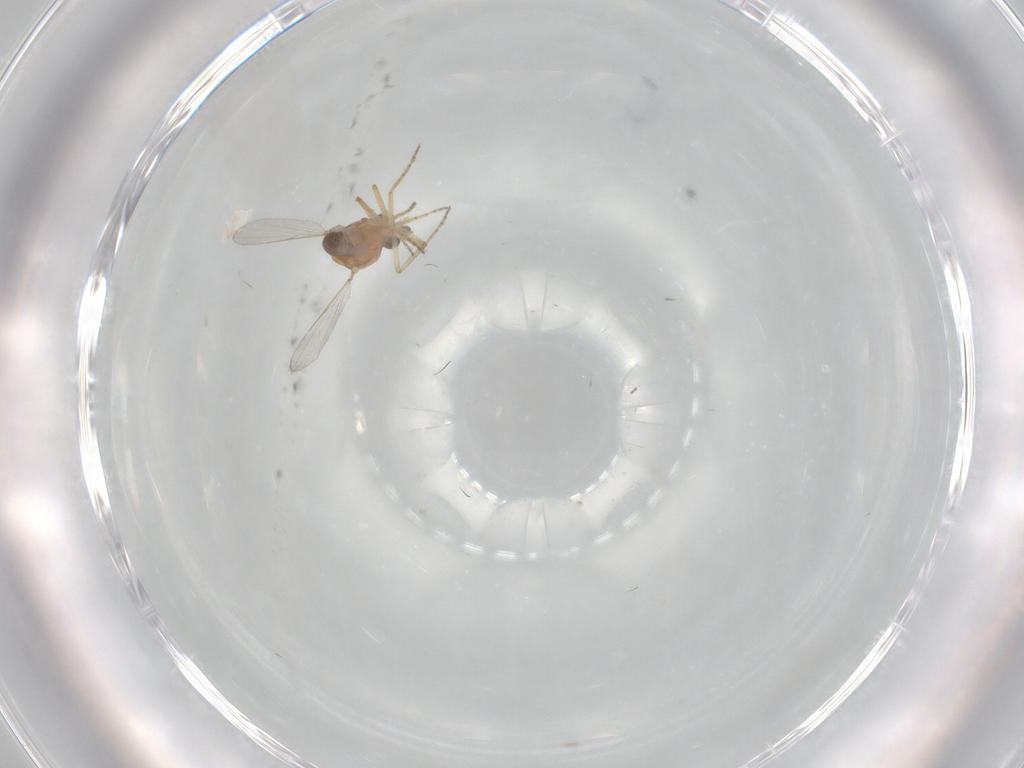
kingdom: Animalia
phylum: Arthropoda
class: Insecta
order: Diptera
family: Ceratopogonidae
